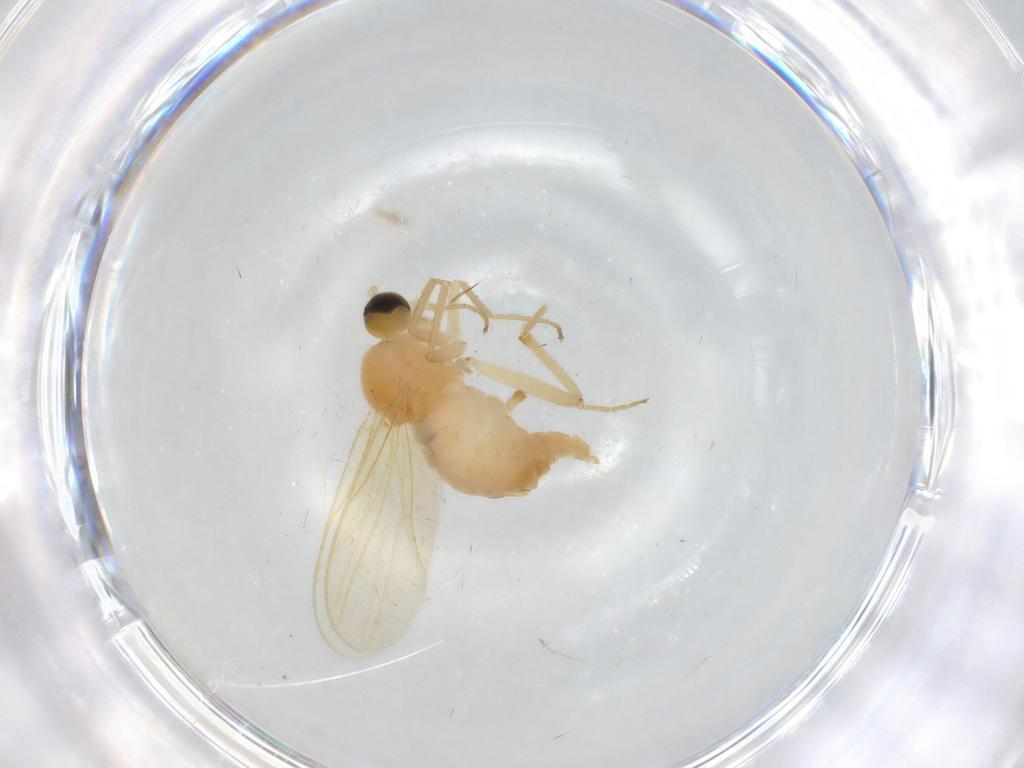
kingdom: Animalia
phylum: Arthropoda
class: Insecta
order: Diptera
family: Hybotidae
